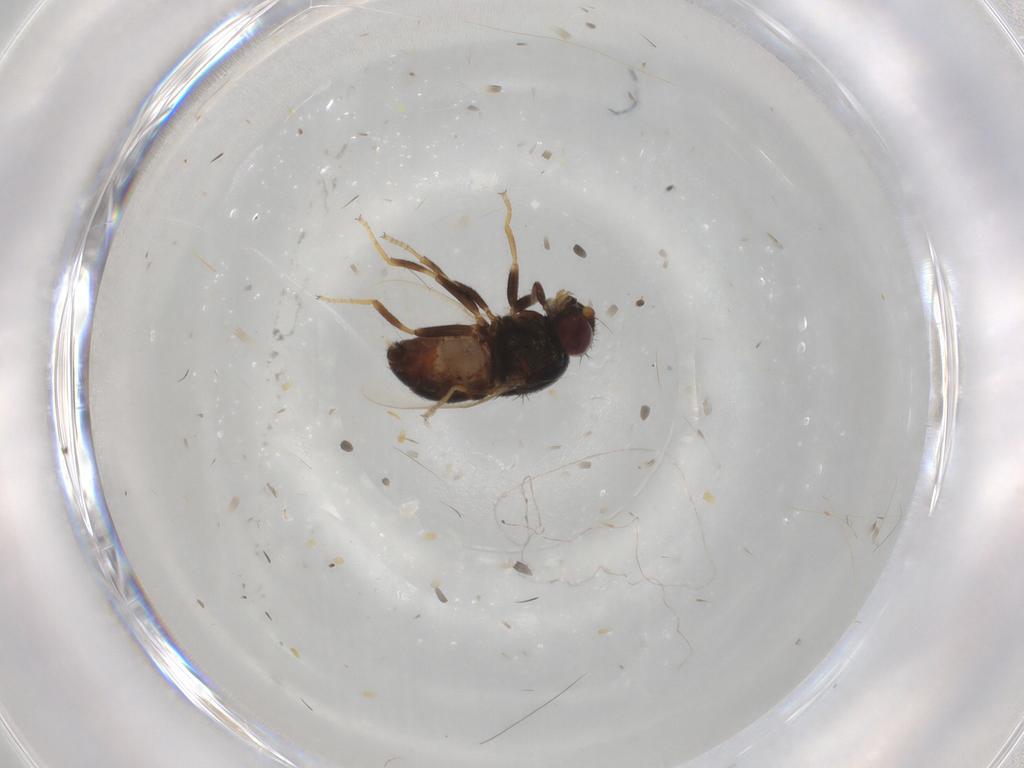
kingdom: Animalia
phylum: Arthropoda
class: Insecta
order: Diptera
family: Chloropidae
